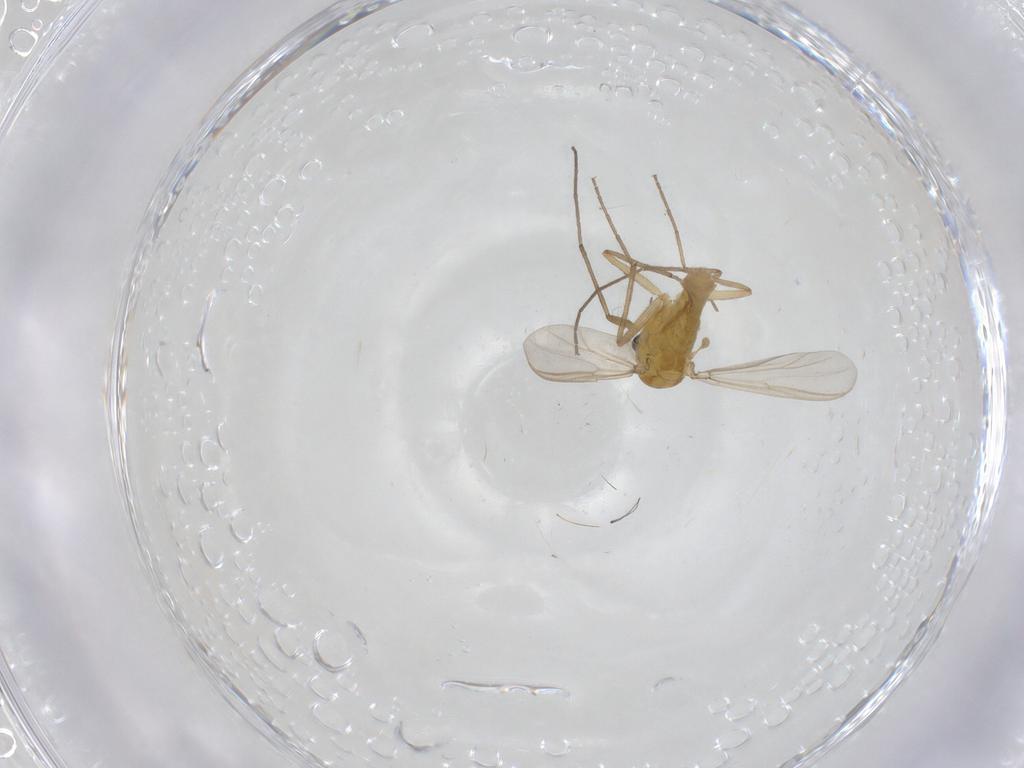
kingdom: Animalia
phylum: Arthropoda
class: Insecta
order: Diptera
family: Chironomidae
